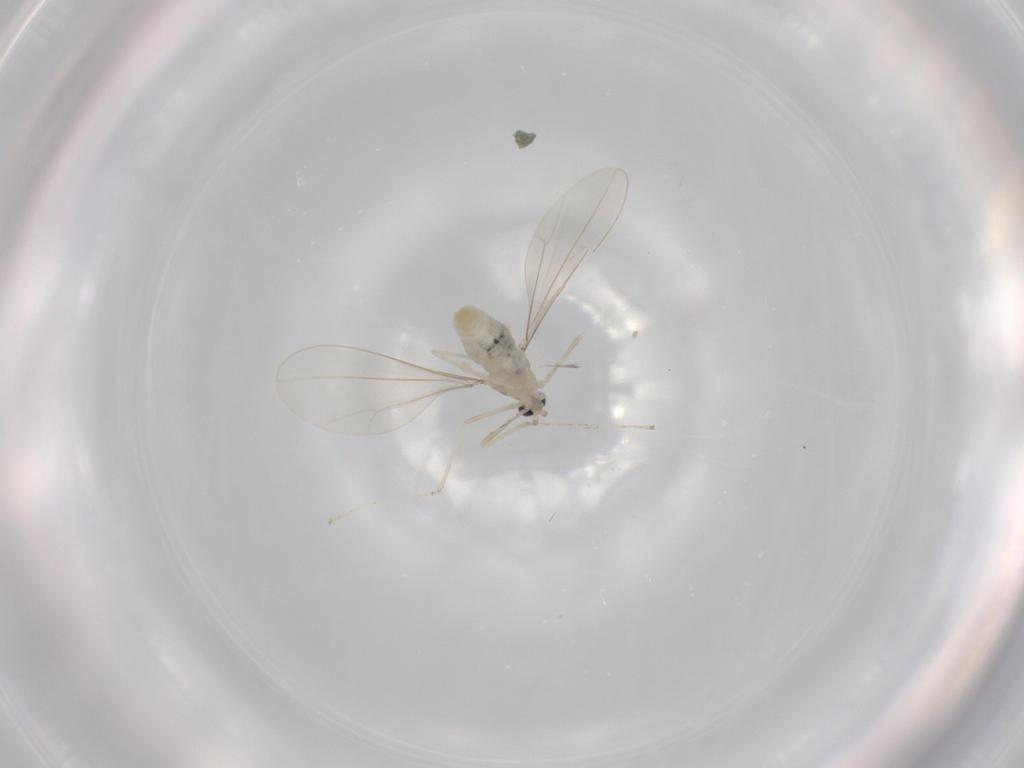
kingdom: Animalia
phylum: Arthropoda
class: Insecta
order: Diptera
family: Cecidomyiidae
